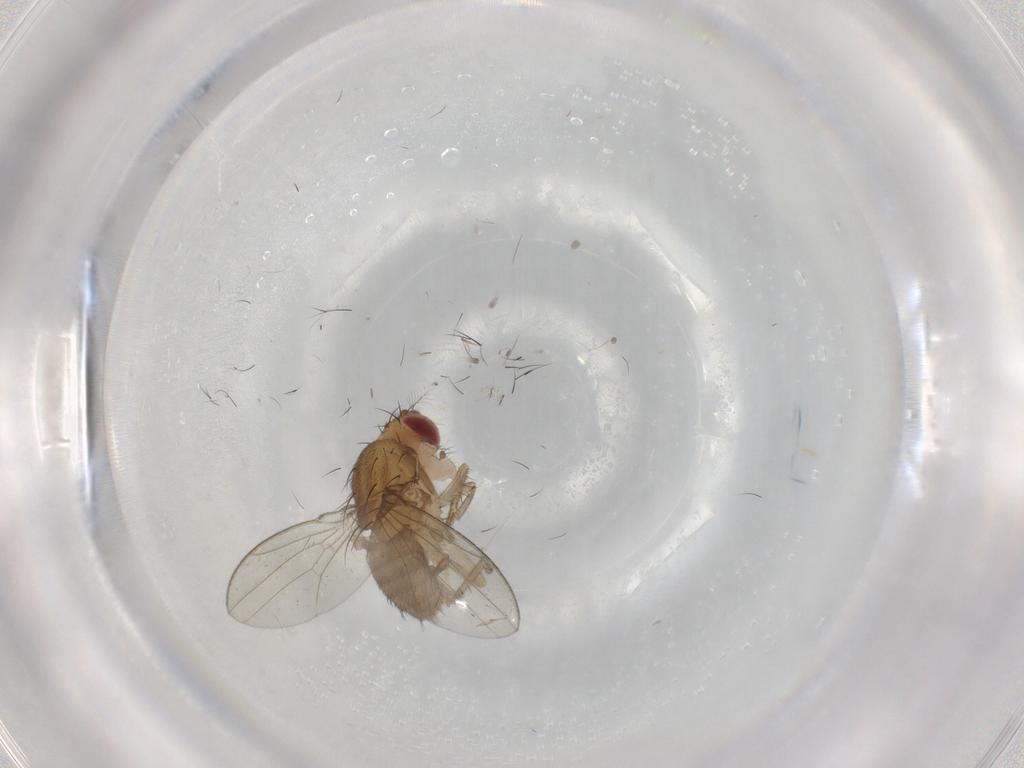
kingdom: Animalia
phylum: Arthropoda
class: Insecta
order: Diptera
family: Drosophilidae
